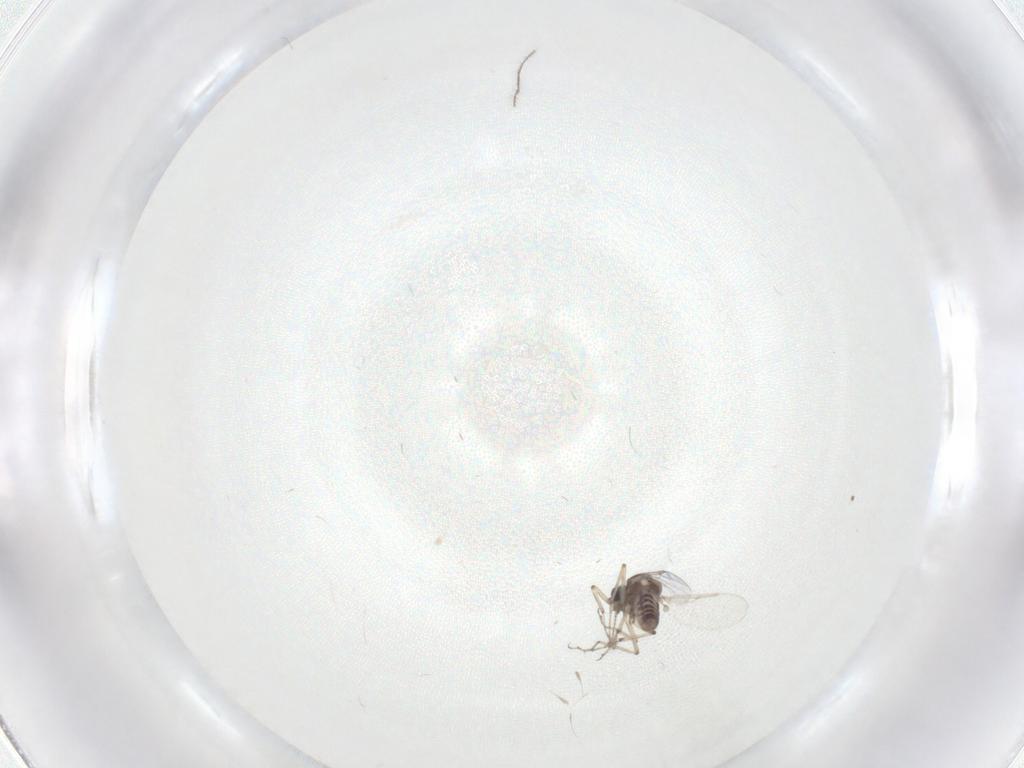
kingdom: Animalia
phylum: Arthropoda
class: Insecta
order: Diptera
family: Ceratopogonidae
